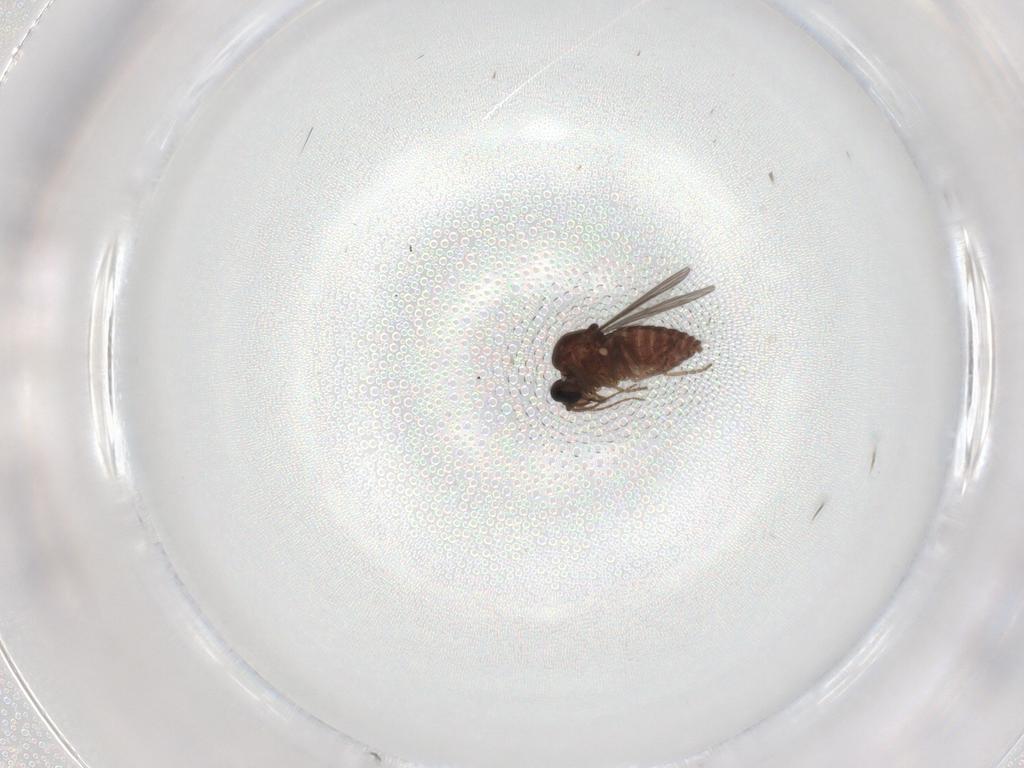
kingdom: Animalia
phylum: Arthropoda
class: Insecta
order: Diptera
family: Psychodidae
